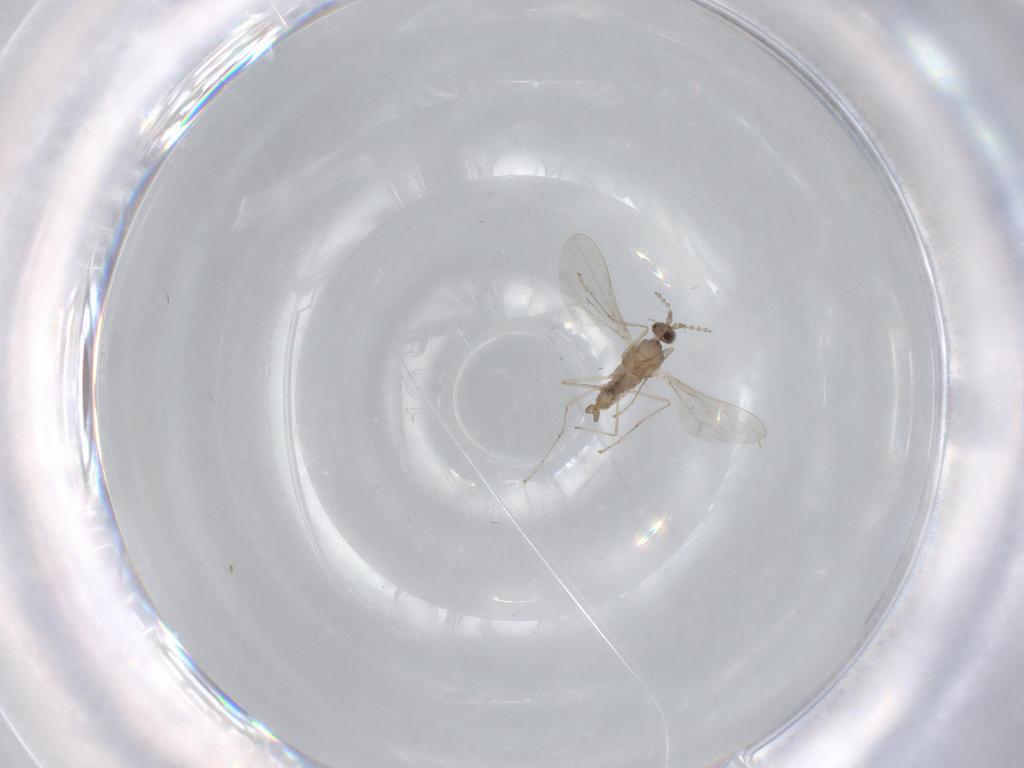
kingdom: Animalia
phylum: Arthropoda
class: Insecta
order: Diptera
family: Cecidomyiidae
